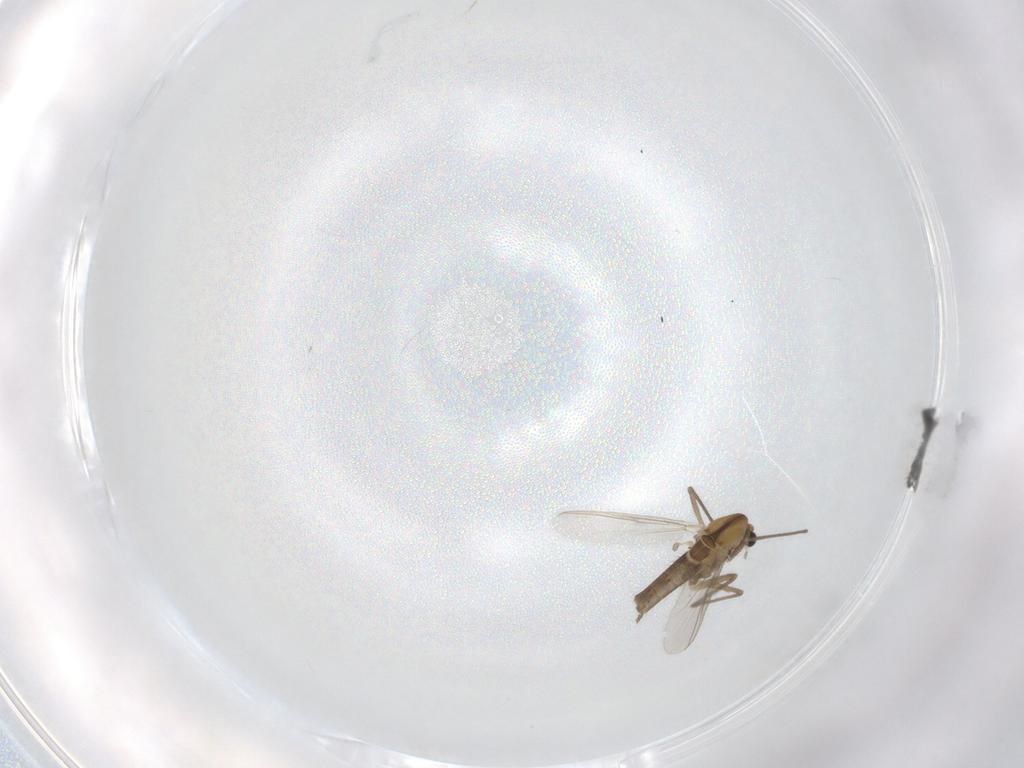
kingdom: Animalia
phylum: Arthropoda
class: Insecta
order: Diptera
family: Chironomidae
